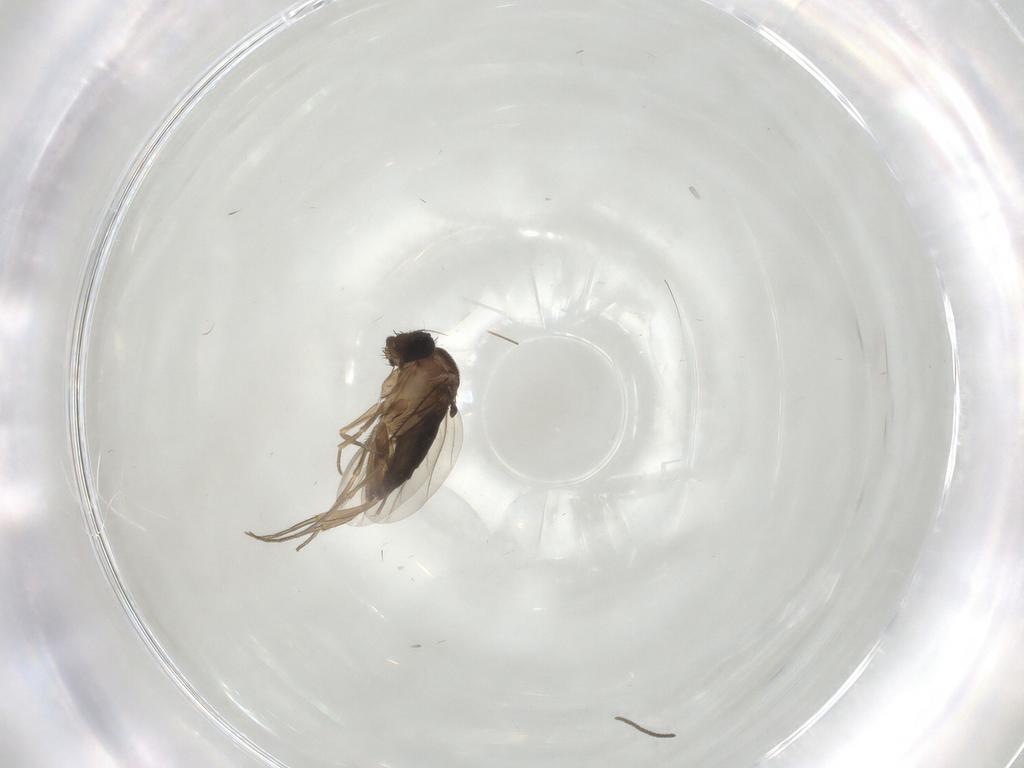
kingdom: Animalia
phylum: Arthropoda
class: Insecta
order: Diptera
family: Sciaridae
